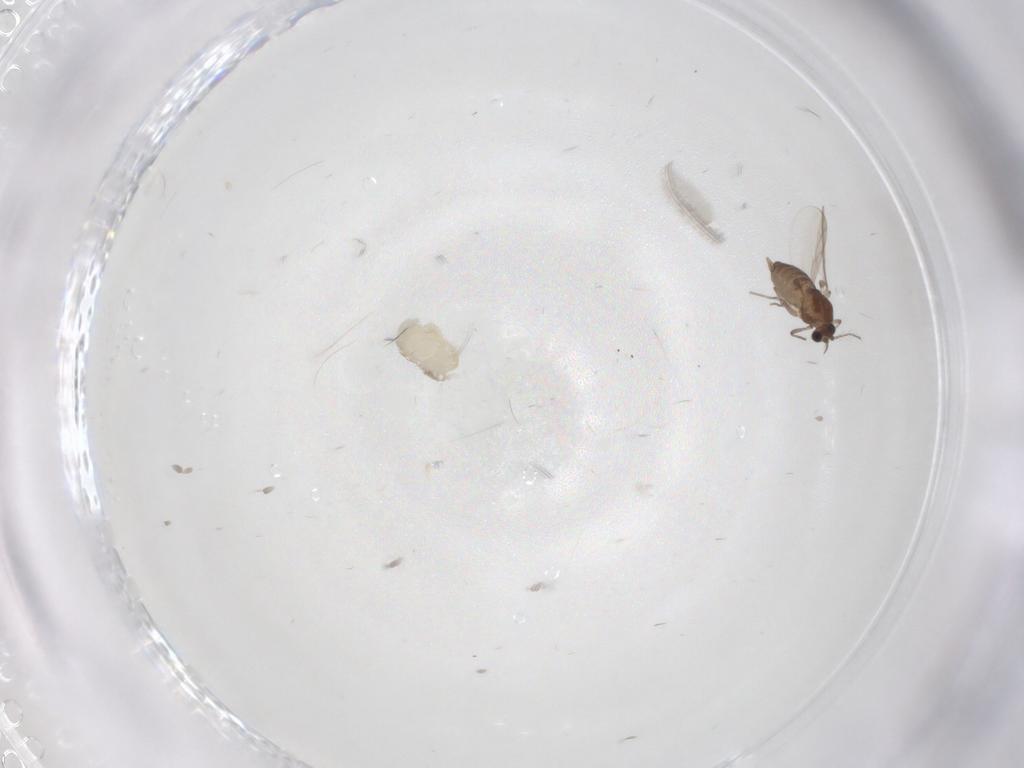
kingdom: Animalia
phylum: Arthropoda
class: Insecta
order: Diptera
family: Chironomidae
